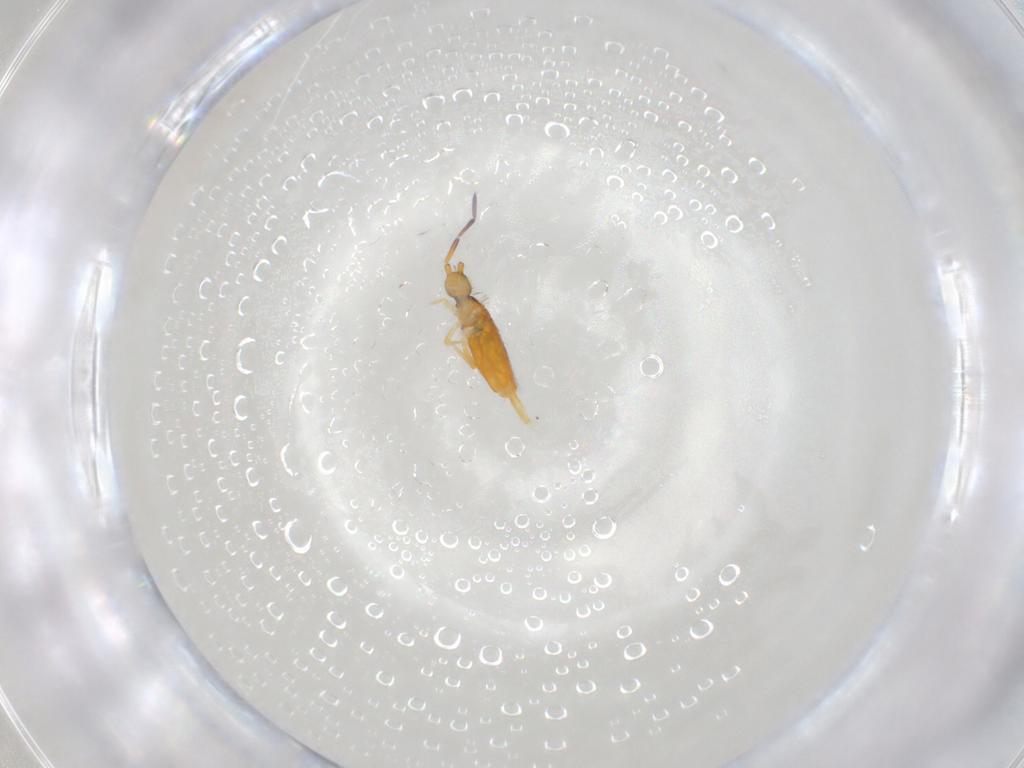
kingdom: Animalia
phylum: Arthropoda
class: Collembola
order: Entomobryomorpha
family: Entomobryidae
